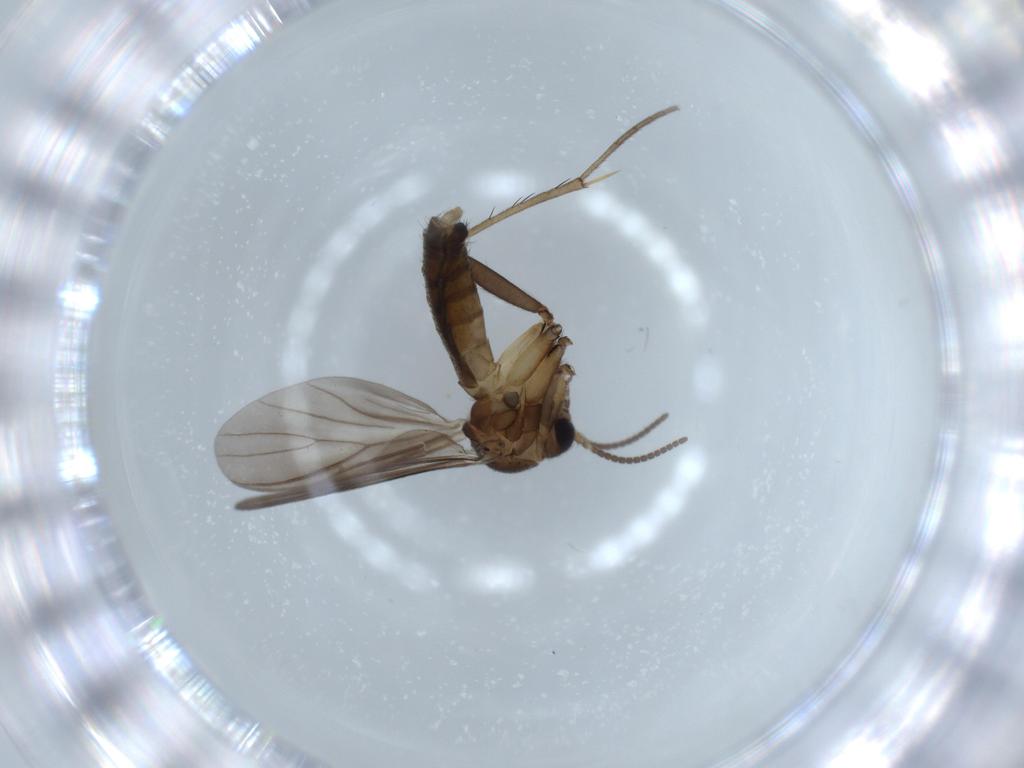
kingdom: Animalia
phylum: Arthropoda
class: Insecta
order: Diptera
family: Mycetophilidae
